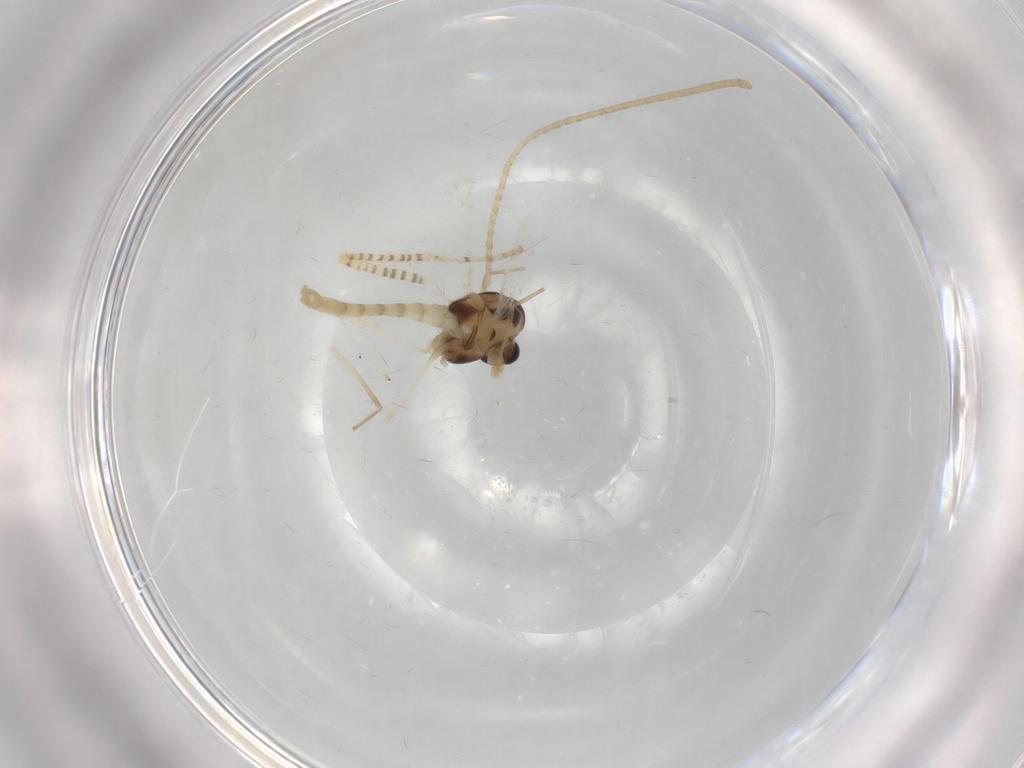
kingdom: Animalia
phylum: Arthropoda
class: Insecta
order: Diptera
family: Chironomidae
